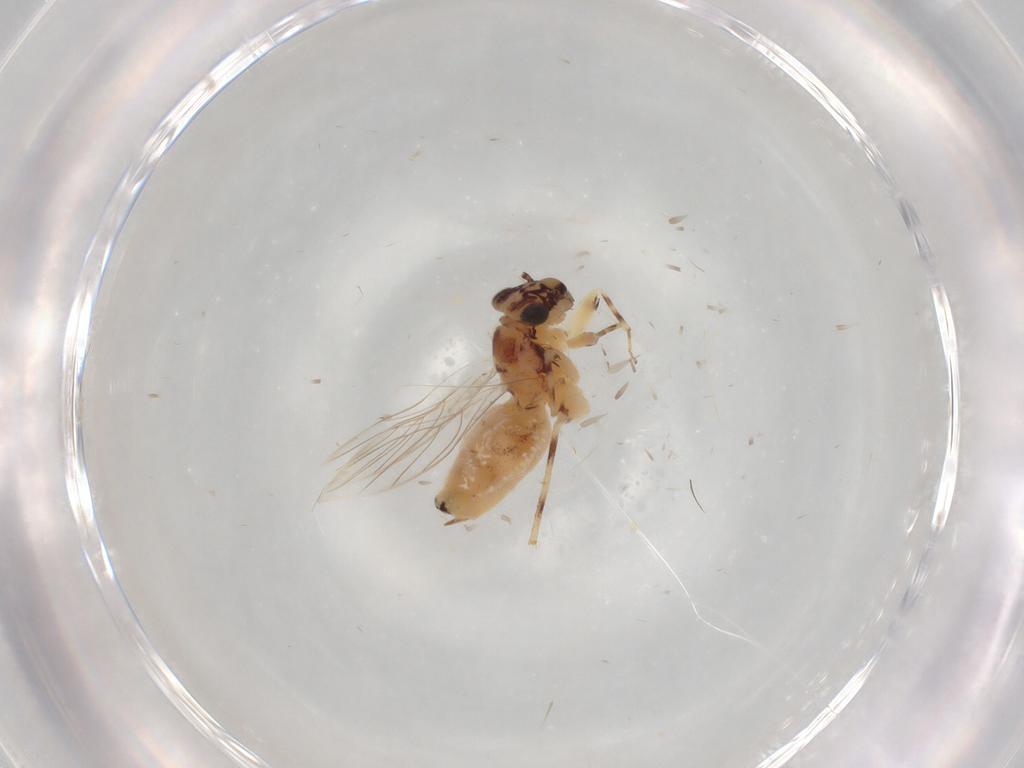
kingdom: Animalia
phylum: Arthropoda
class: Insecta
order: Psocodea
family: Lepidopsocidae
